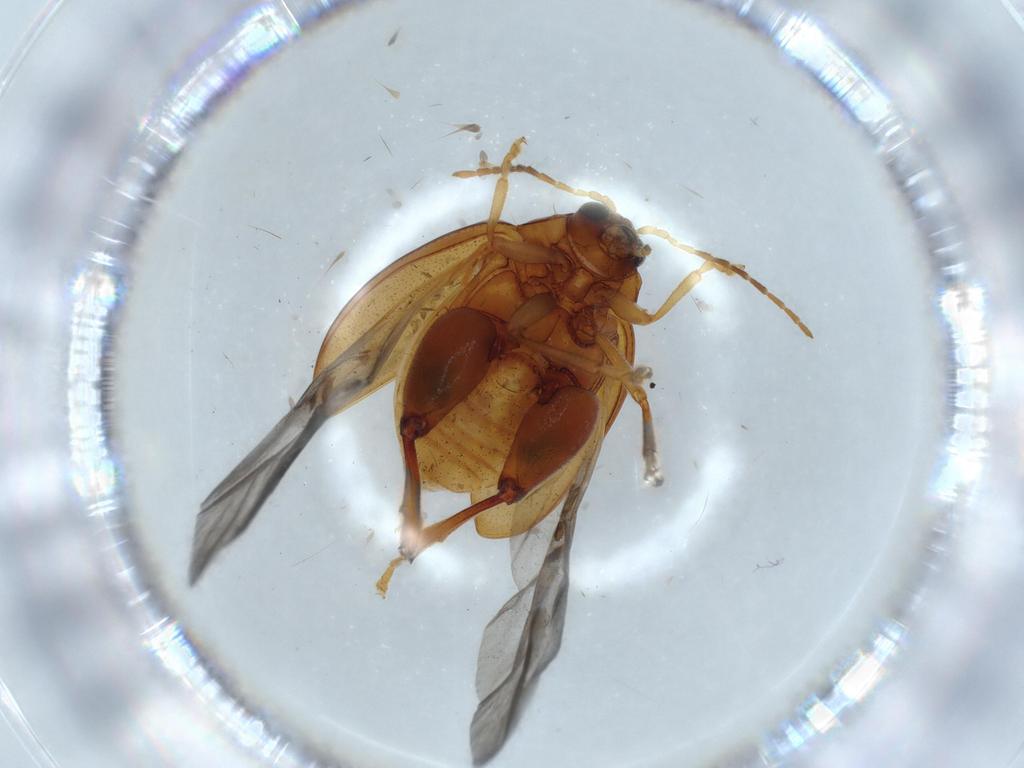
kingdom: Animalia
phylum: Arthropoda
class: Insecta
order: Coleoptera
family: Chrysomelidae
